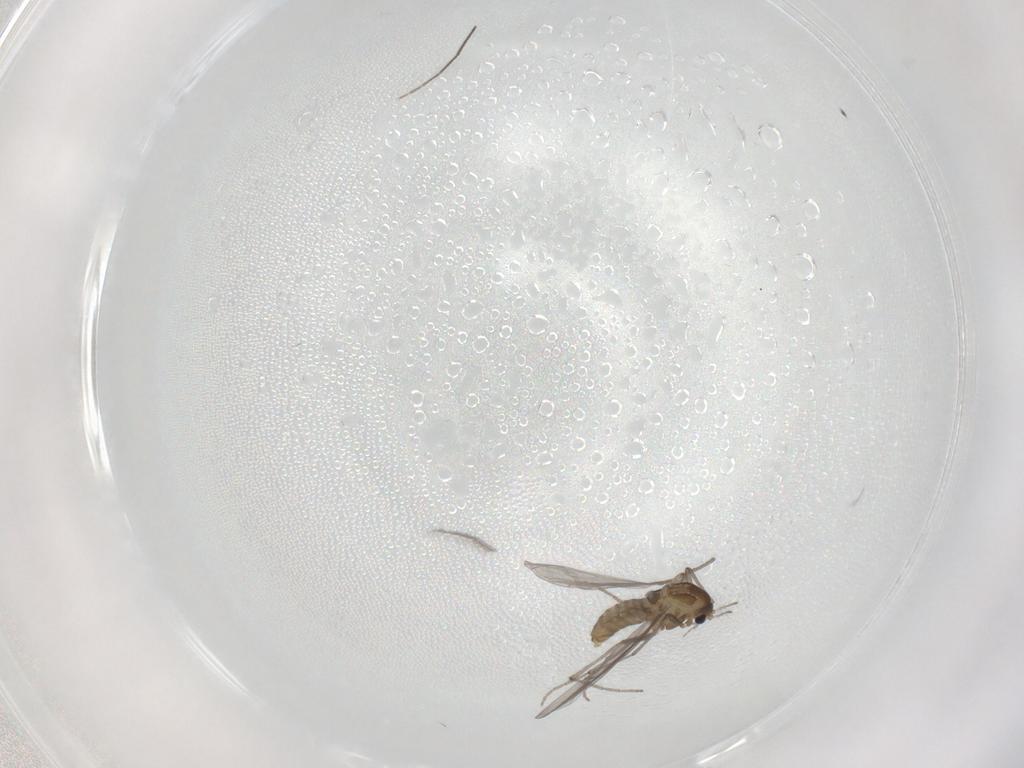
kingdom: Animalia
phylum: Arthropoda
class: Insecta
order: Diptera
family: Chironomidae
